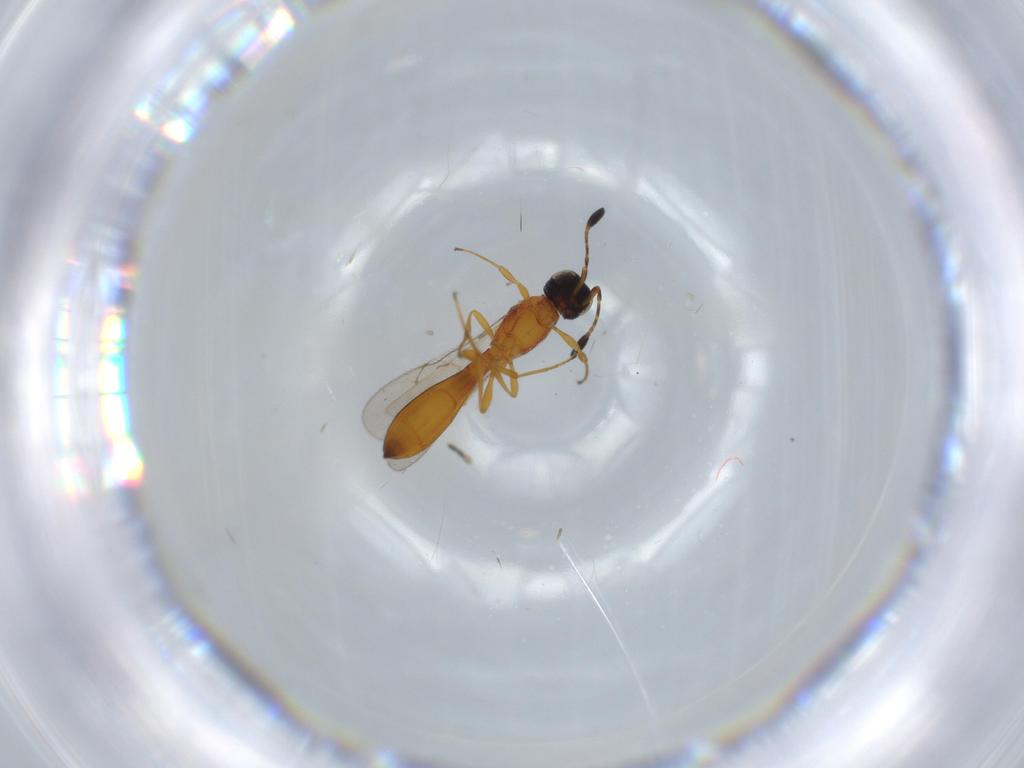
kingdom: Animalia
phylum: Arthropoda
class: Insecta
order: Hymenoptera
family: Scelionidae
